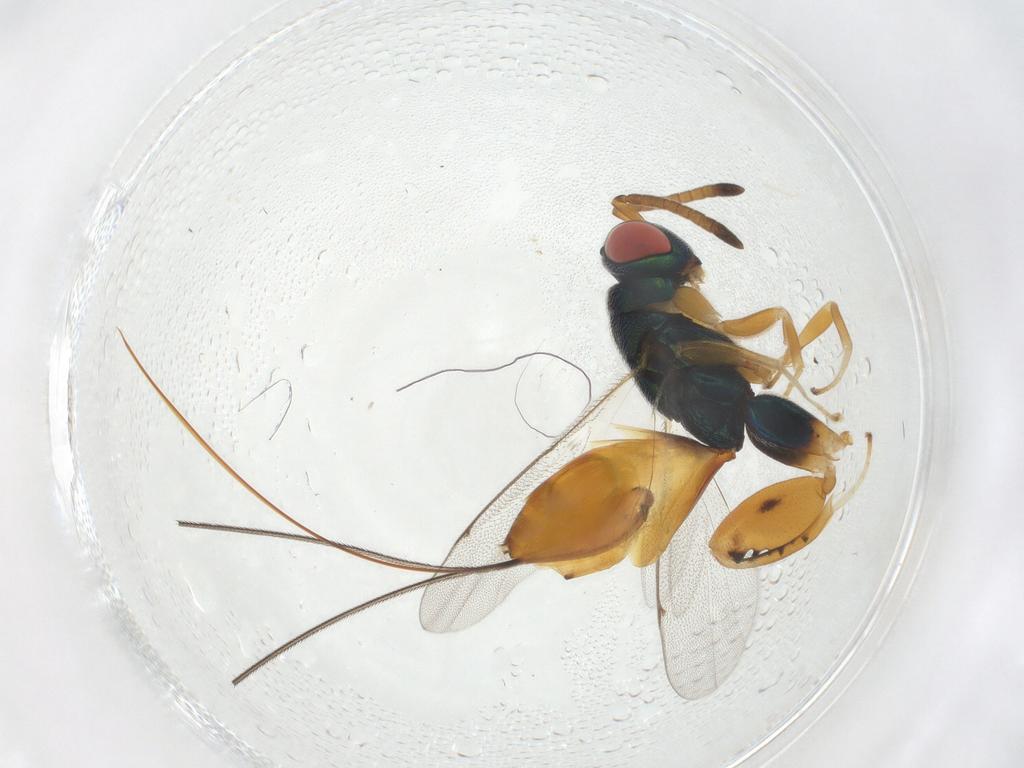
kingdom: Animalia
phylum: Arthropoda
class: Insecta
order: Hymenoptera
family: Torymidae
